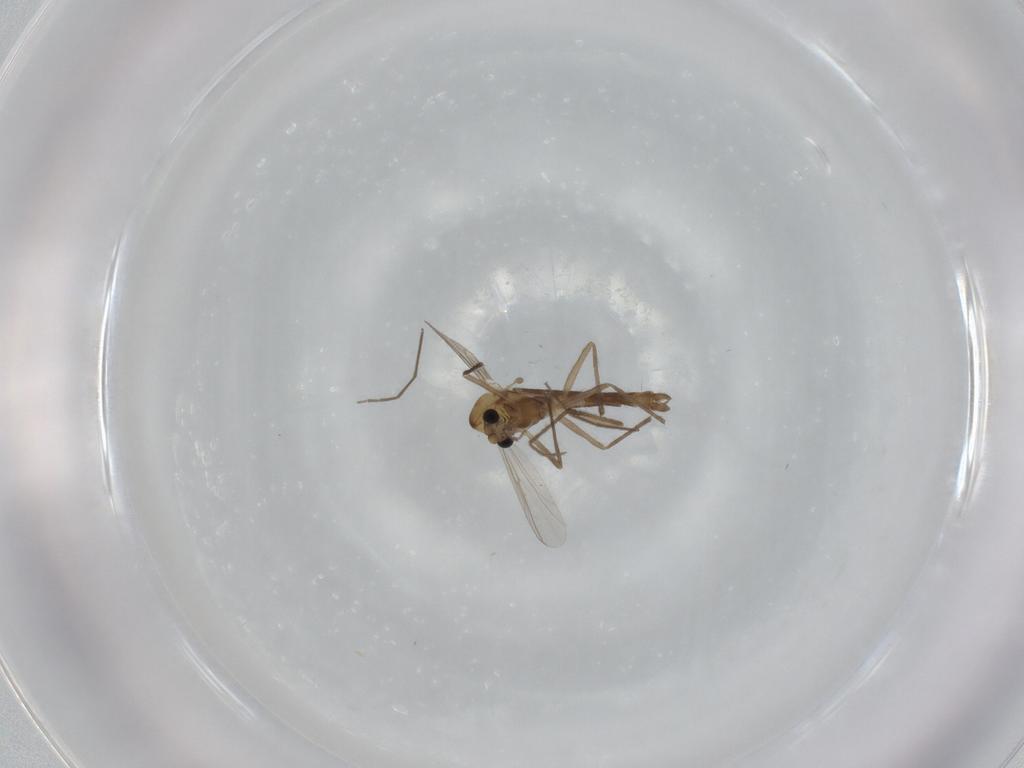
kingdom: Animalia
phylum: Arthropoda
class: Insecta
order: Diptera
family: Chironomidae
